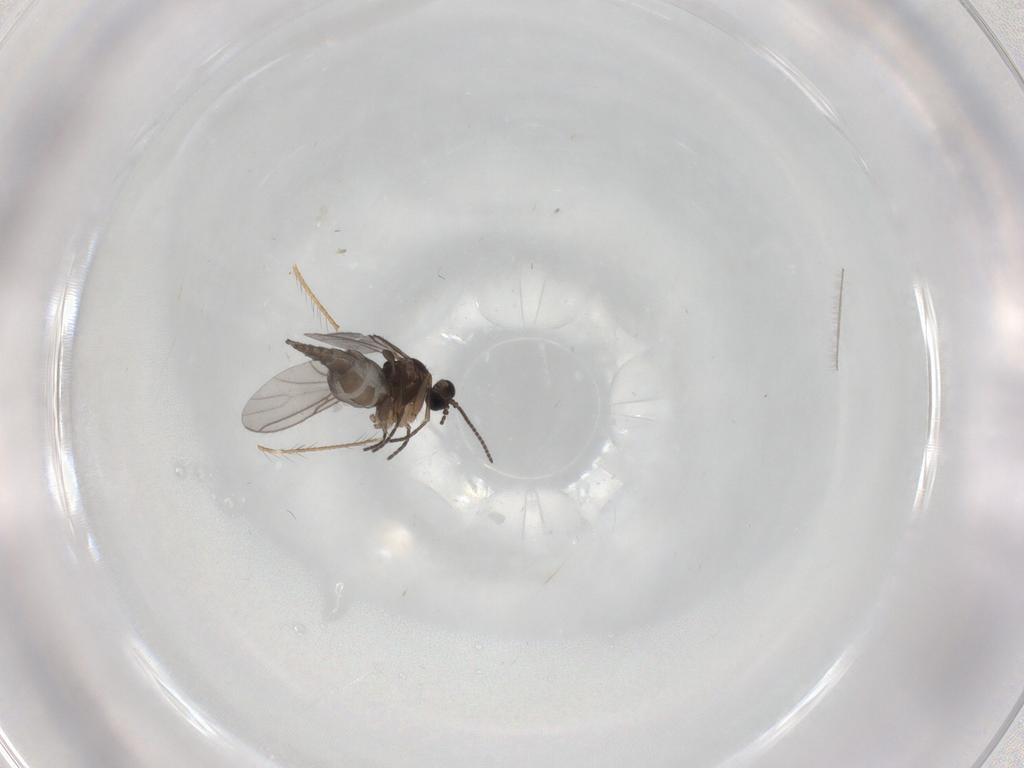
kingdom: Animalia
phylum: Arthropoda
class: Insecta
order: Diptera
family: Sciaridae
